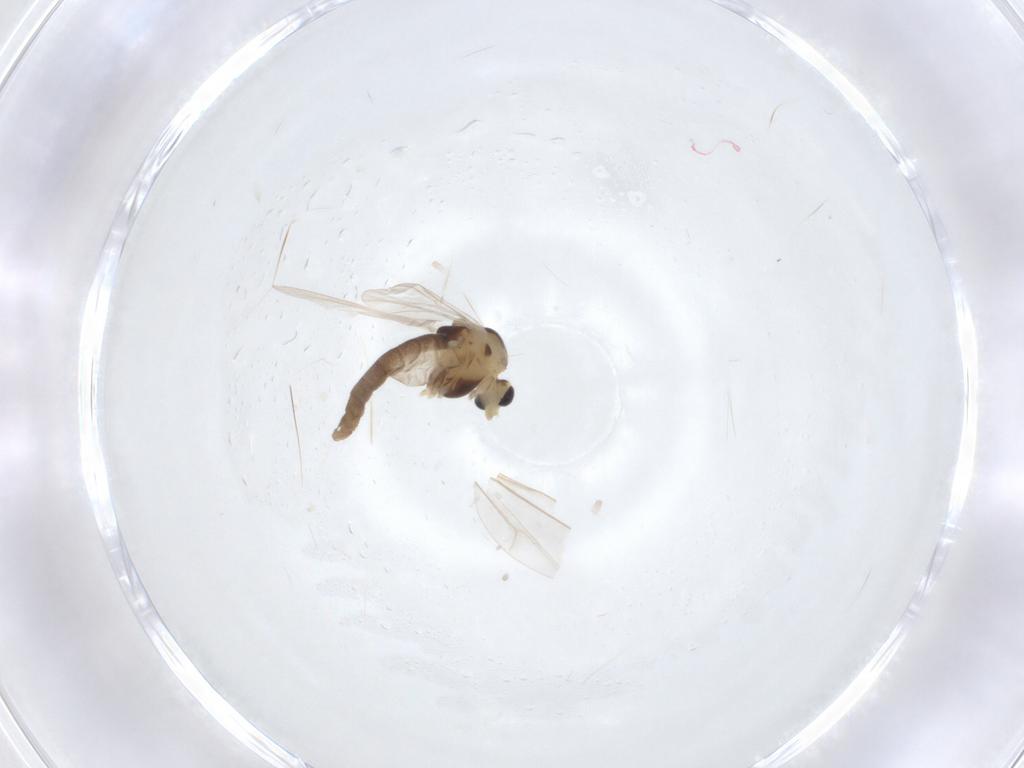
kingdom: Animalia
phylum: Arthropoda
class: Insecta
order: Diptera
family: Chironomidae
